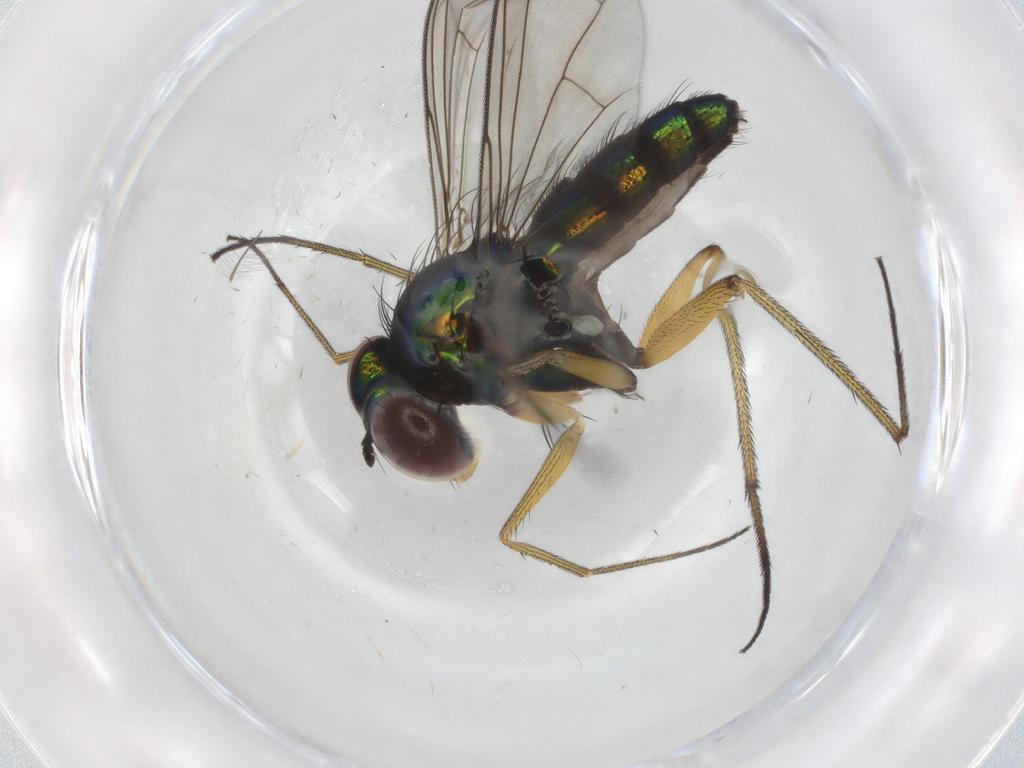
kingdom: Animalia
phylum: Arthropoda
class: Insecta
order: Diptera
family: Dolichopodidae
